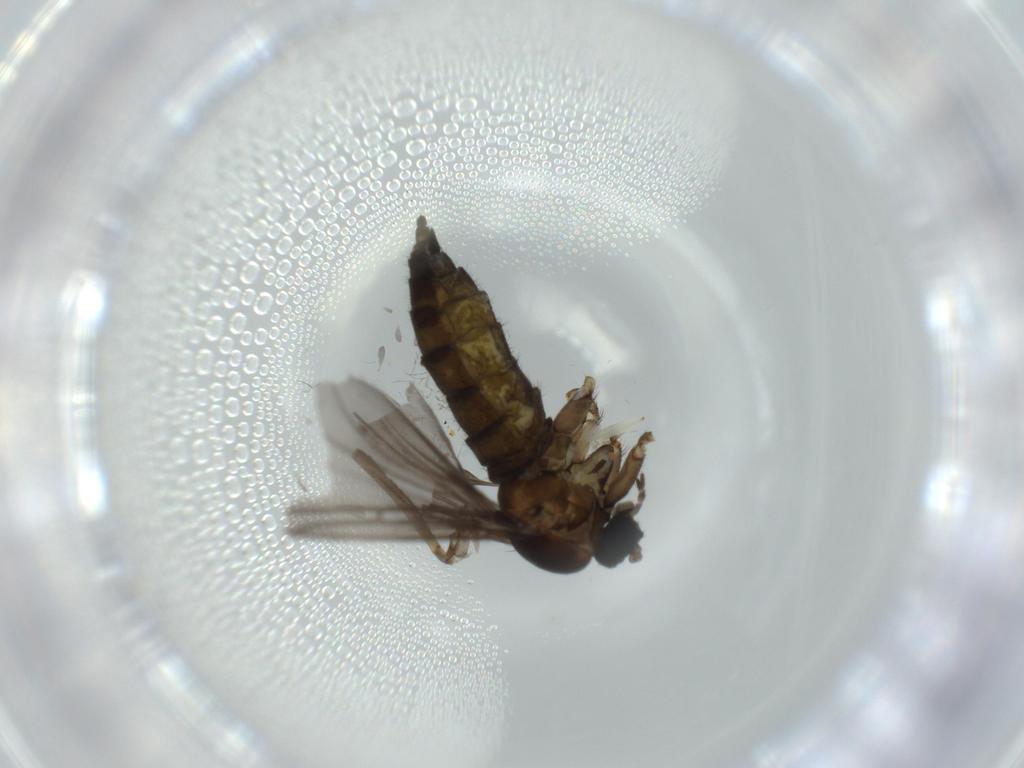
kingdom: Animalia
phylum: Arthropoda
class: Insecta
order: Diptera
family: Sciaridae
